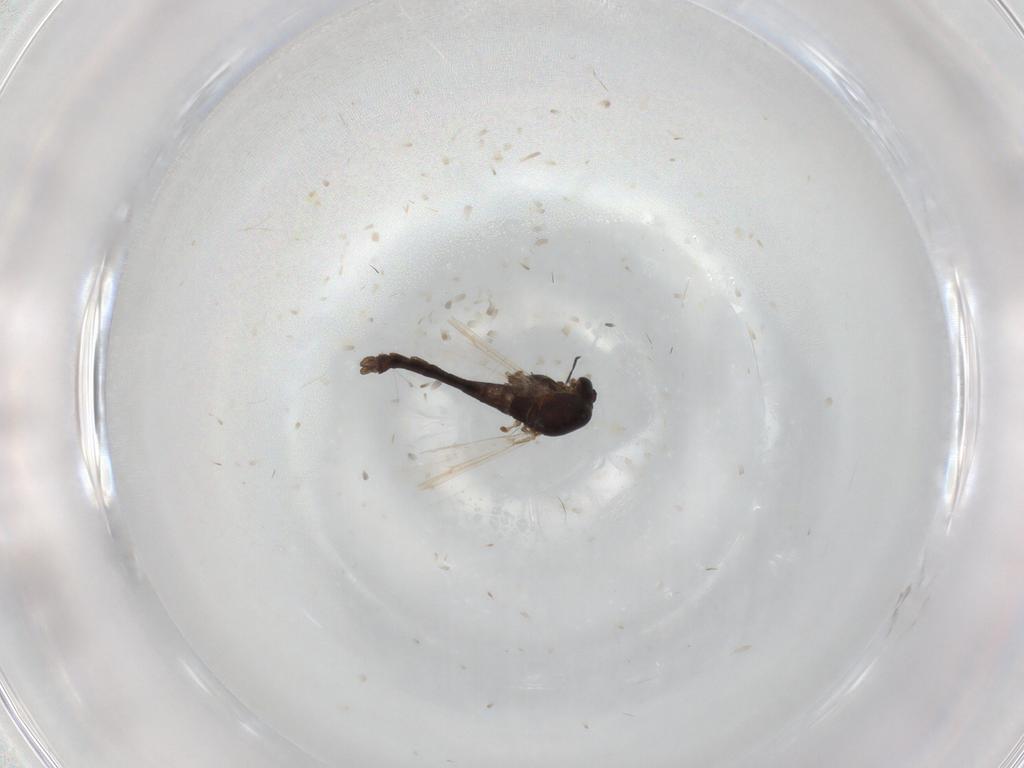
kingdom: Animalia
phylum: Arthropoda
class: Insecta
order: Diptera
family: Chironomidae
